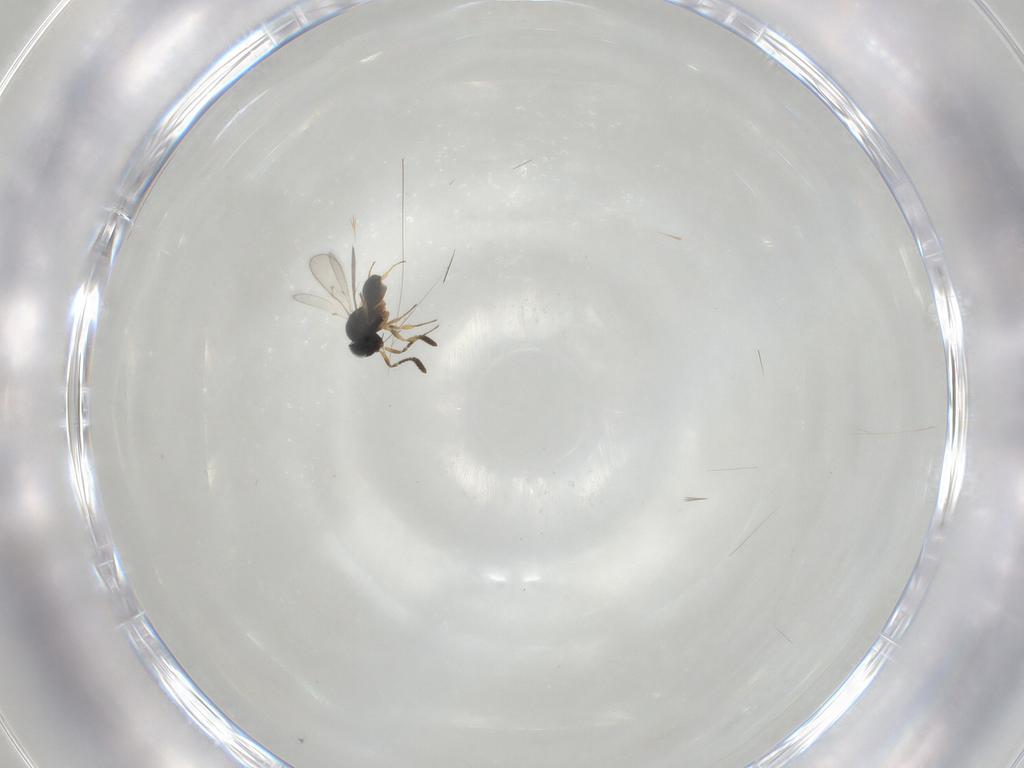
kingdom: Animalia
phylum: Arthropoda
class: Insecta
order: Hymenoptera
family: Scelionidae
